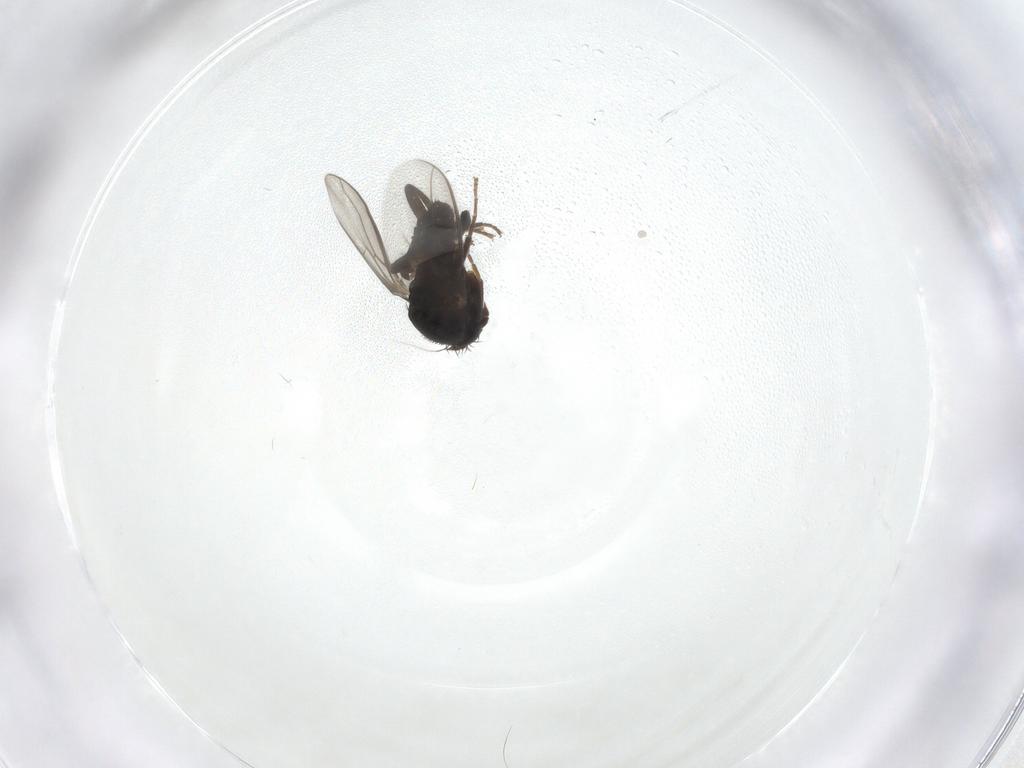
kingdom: Animalia
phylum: Arthropoda
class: Insecta
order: Diptera
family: Sphaeroceridae
